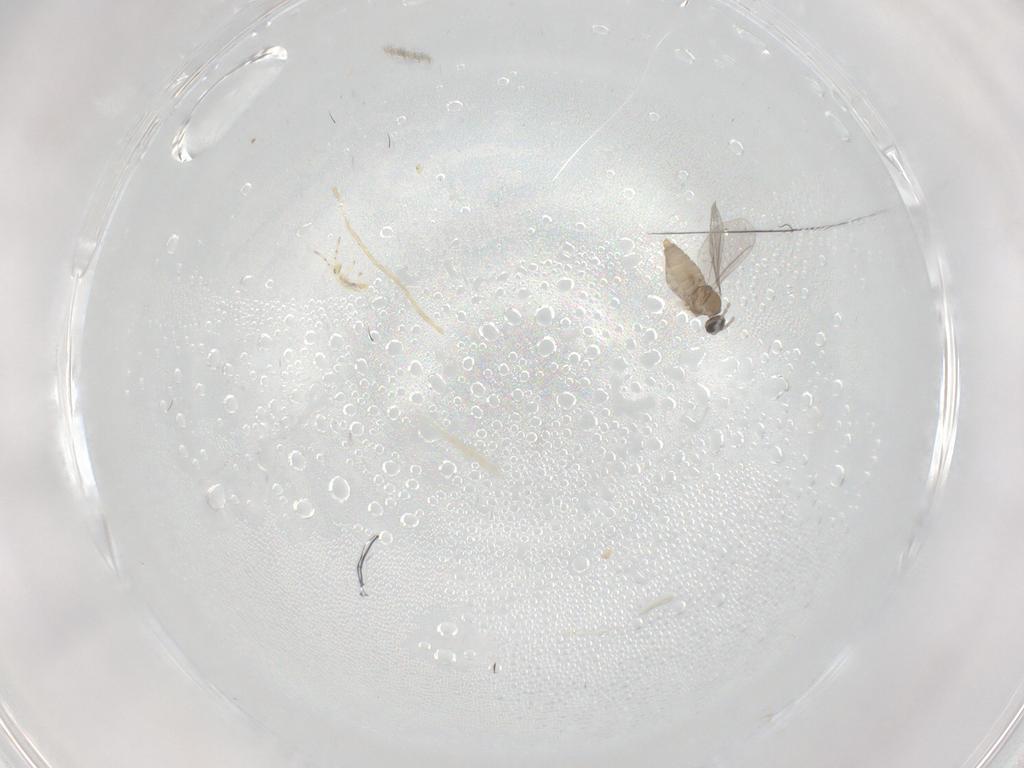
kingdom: Animalia
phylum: Arthropoda
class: Insecta
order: Diptera
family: Cecidomyiidae
